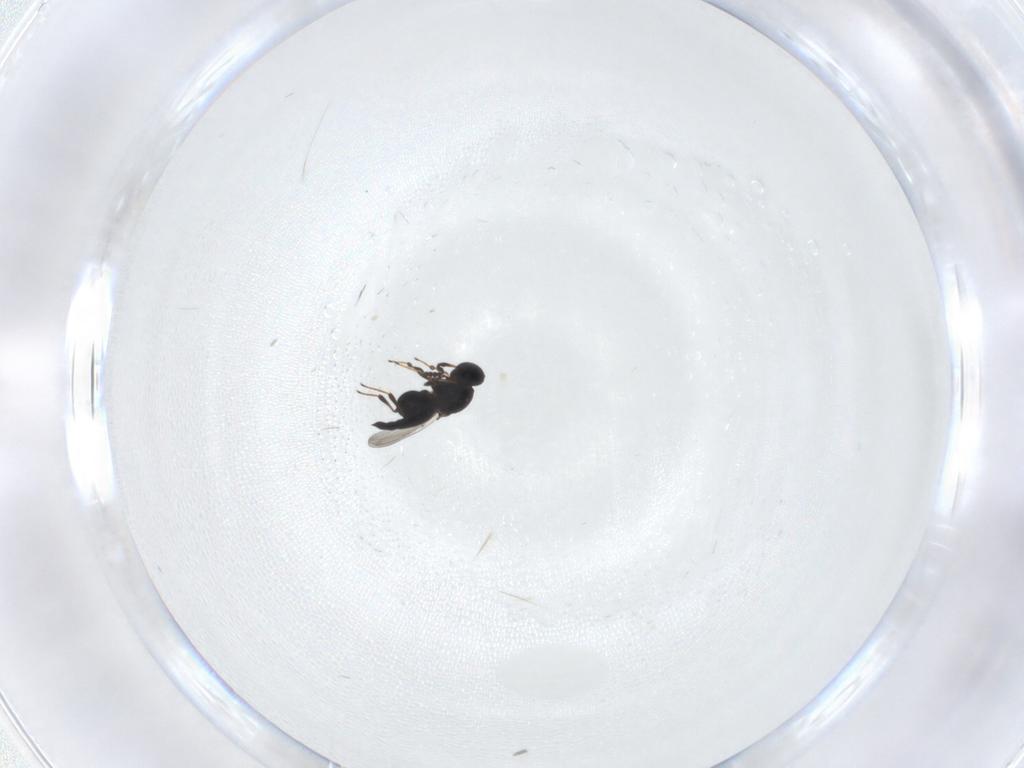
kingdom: Animalia
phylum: Arthropoda
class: Insecta
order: Hymenoptera
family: Platygastridae
